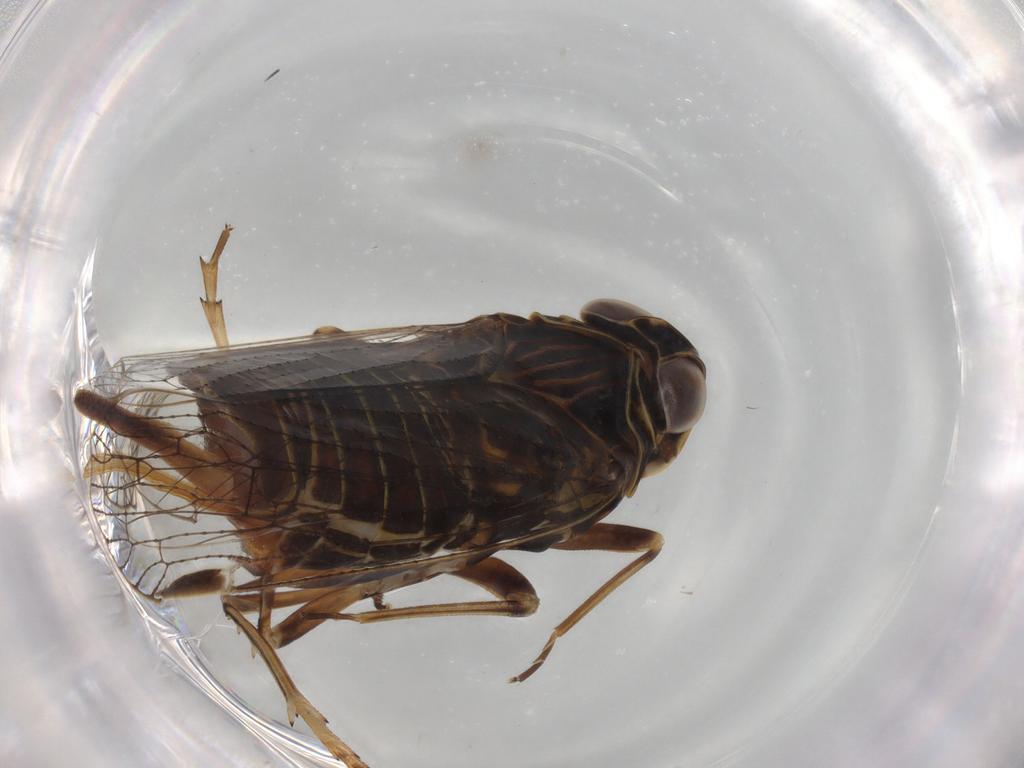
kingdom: Animalia
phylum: Arthropoda
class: Insecta
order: Hemiptera
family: Cixiidae
